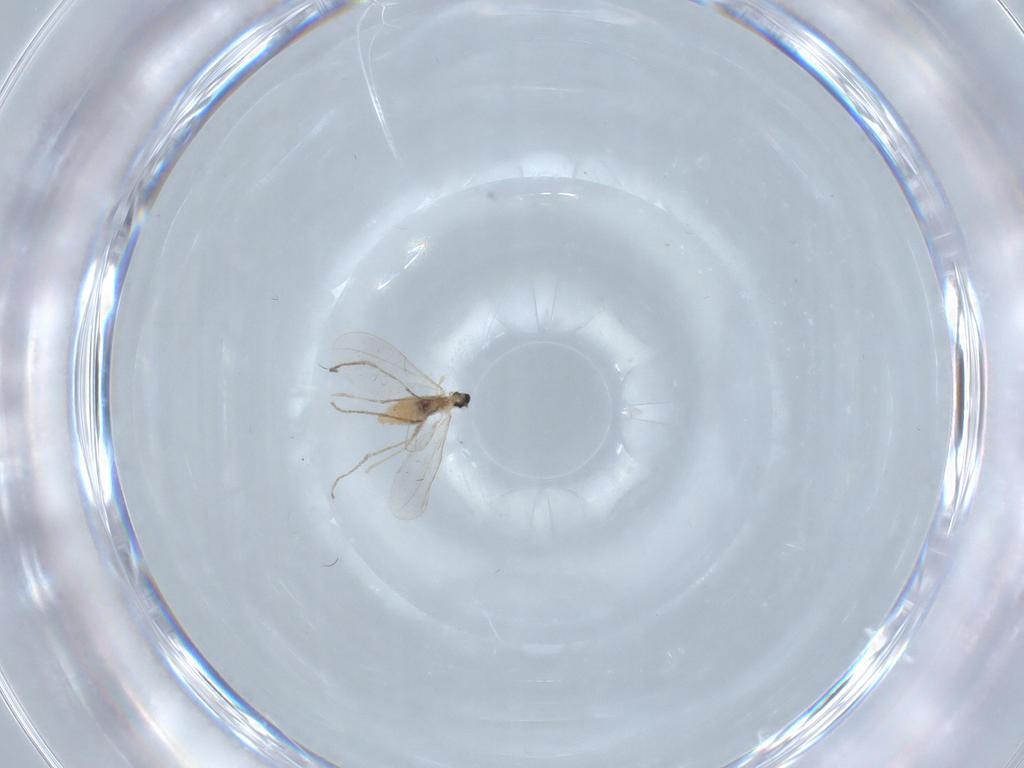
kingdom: Animalia
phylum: Arthropoda
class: Insecta
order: Diptera
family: Cecidomyiidae
